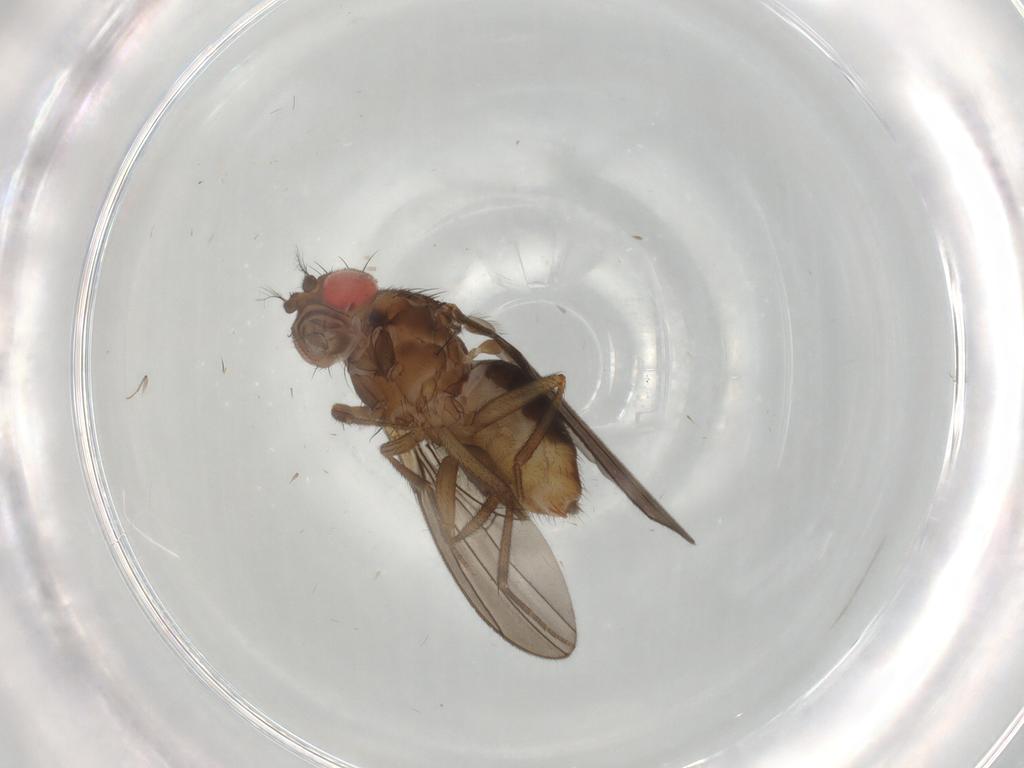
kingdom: Animalia
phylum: Arthropoda
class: Insecta
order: Diptera
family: Drosophilidae
